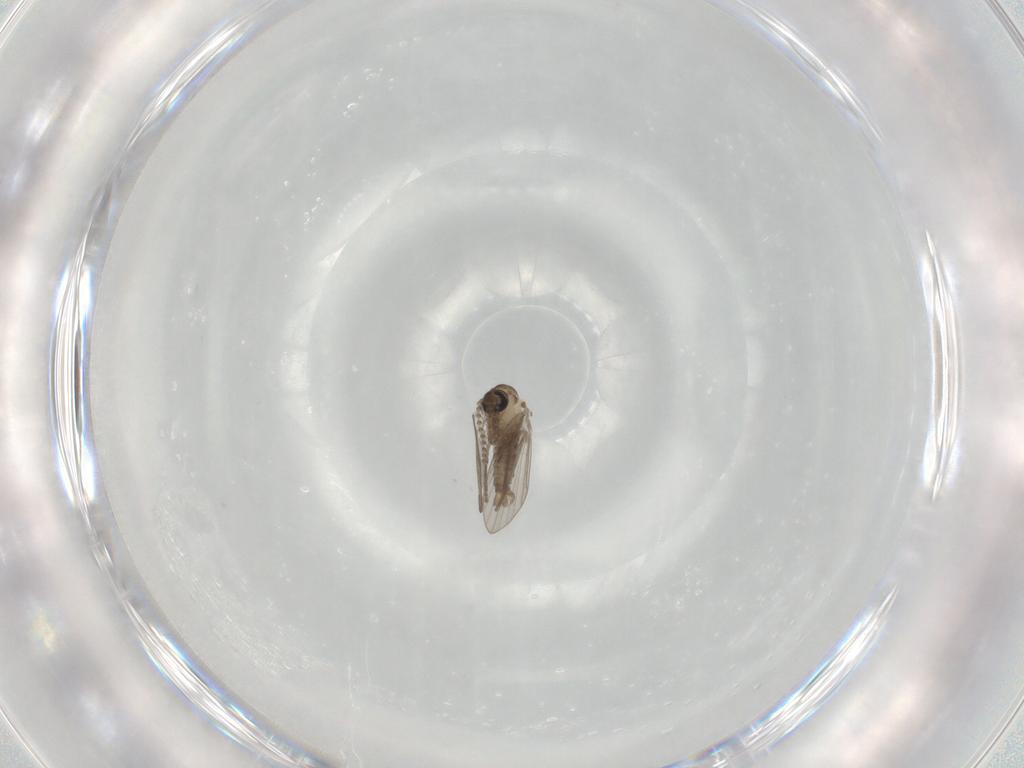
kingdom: Animalia
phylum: Arthropoda
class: Insecta
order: Diptera
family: Psychodidae
